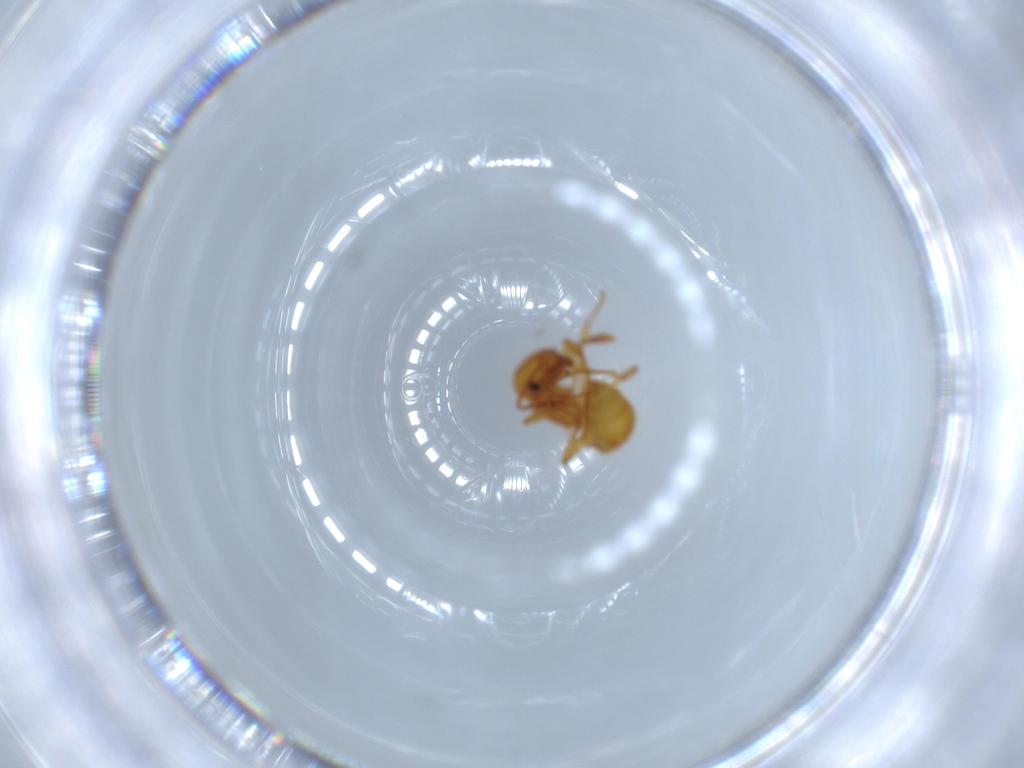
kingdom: Animalia
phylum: Arthropoda
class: Insecta
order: Hymenoptera
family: Formicidae
